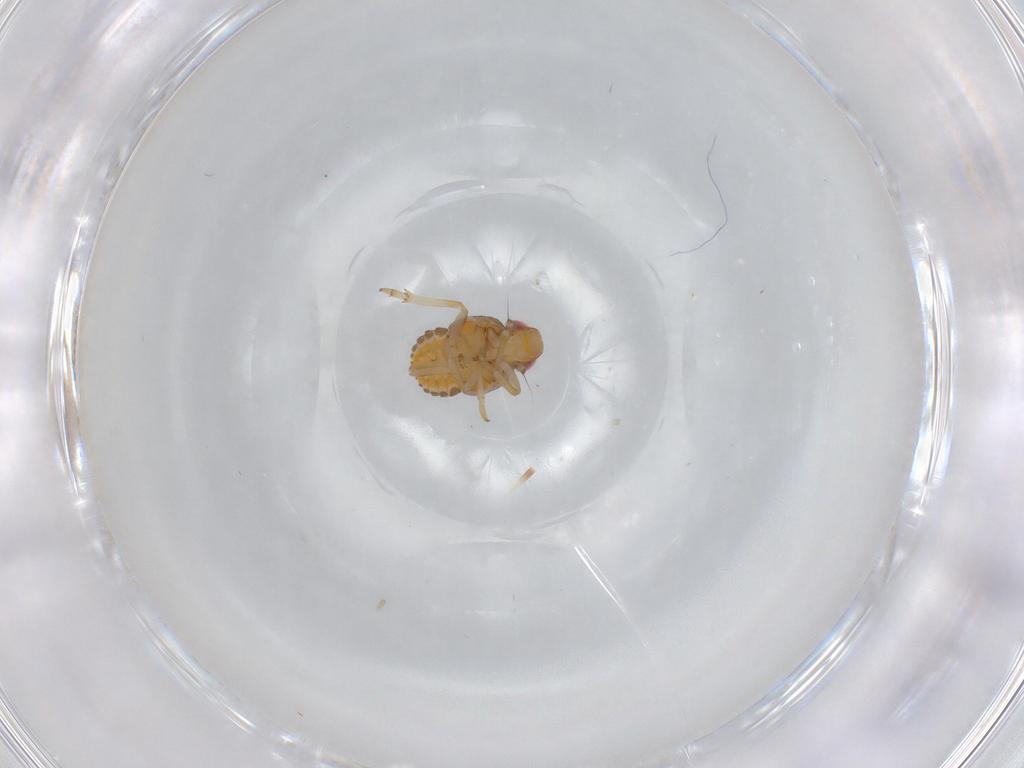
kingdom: Animalia
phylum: Arthropoda
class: Insecta
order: Hemiptera
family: Issidae
